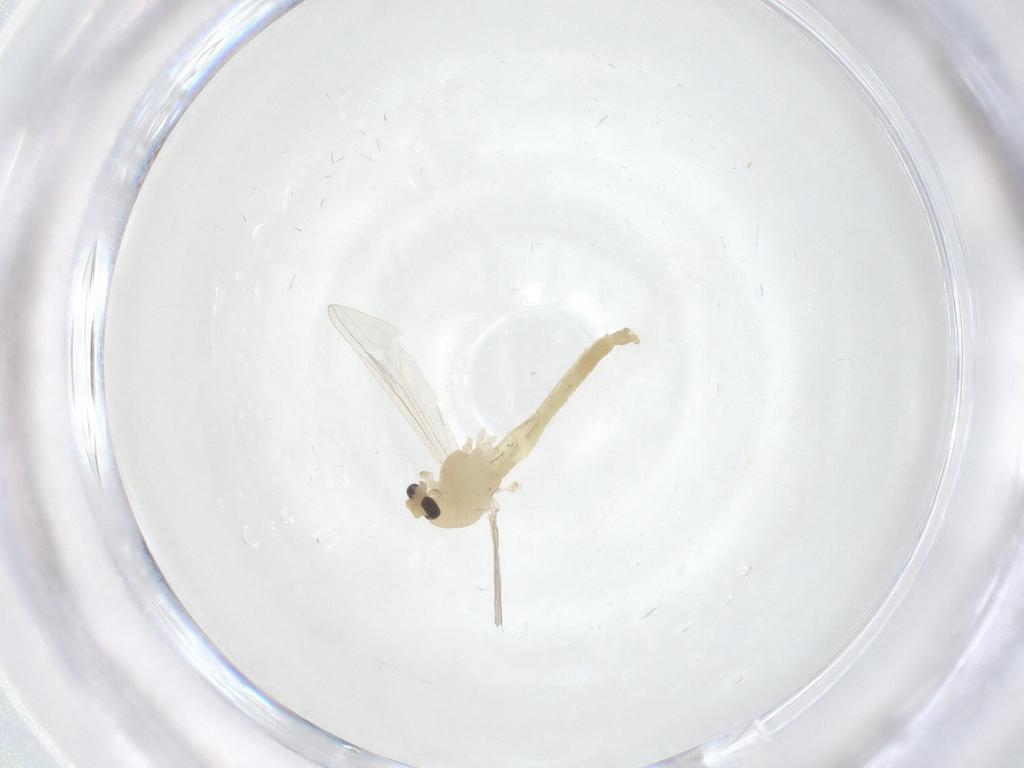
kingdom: Animalia
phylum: Arthropoda
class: Insecta
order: Diptera
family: Chironomidae
